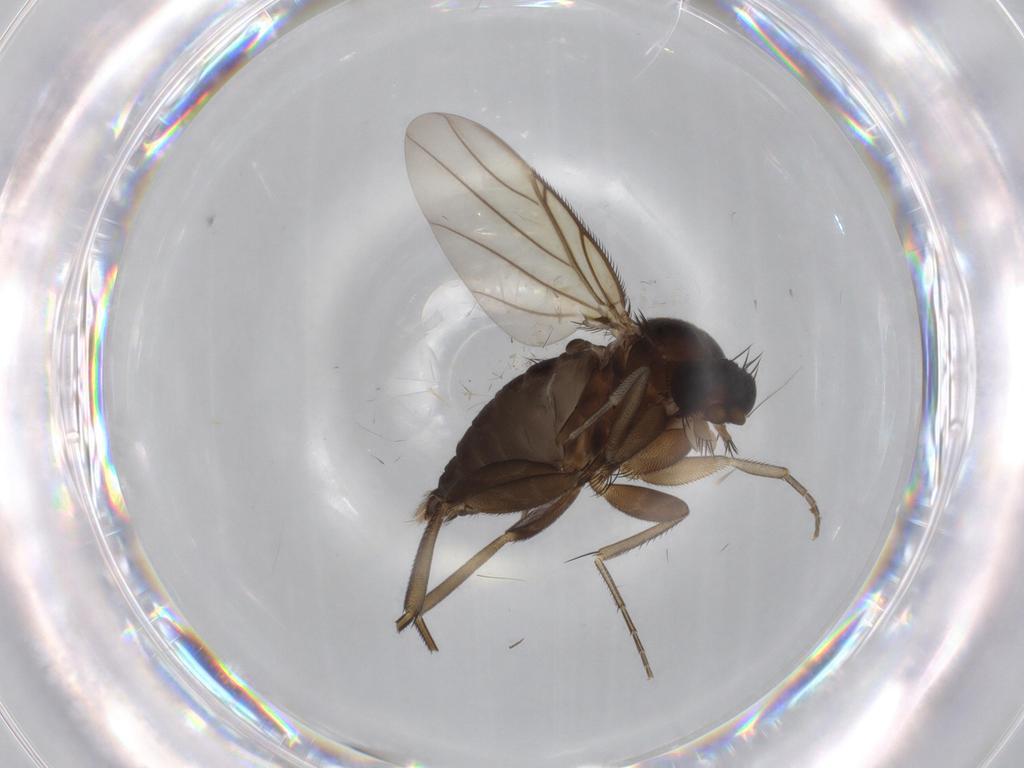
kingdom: Animalia
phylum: Arthropoda
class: Insecta
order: Diptera
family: Phoridae
